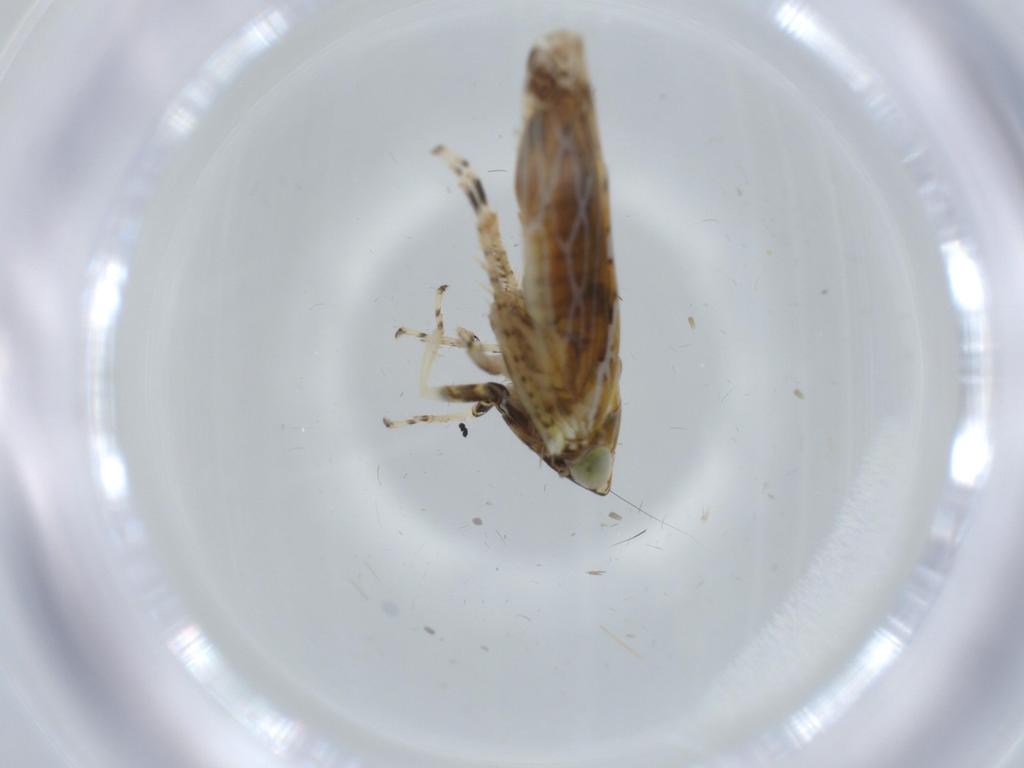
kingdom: Animalia
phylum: Arthropoda
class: Insecta
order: Hemiptera
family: Cicadellidae
